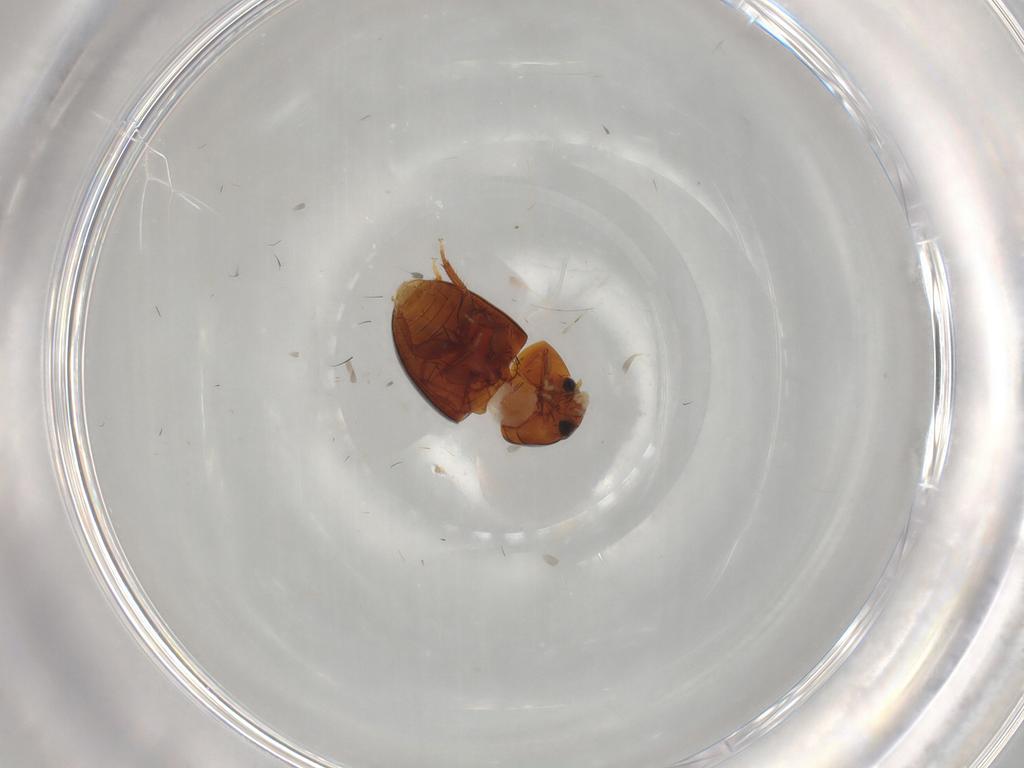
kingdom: Animalia
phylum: Arthropoda
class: Insecta
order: Coleoptera
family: Phalacridae
